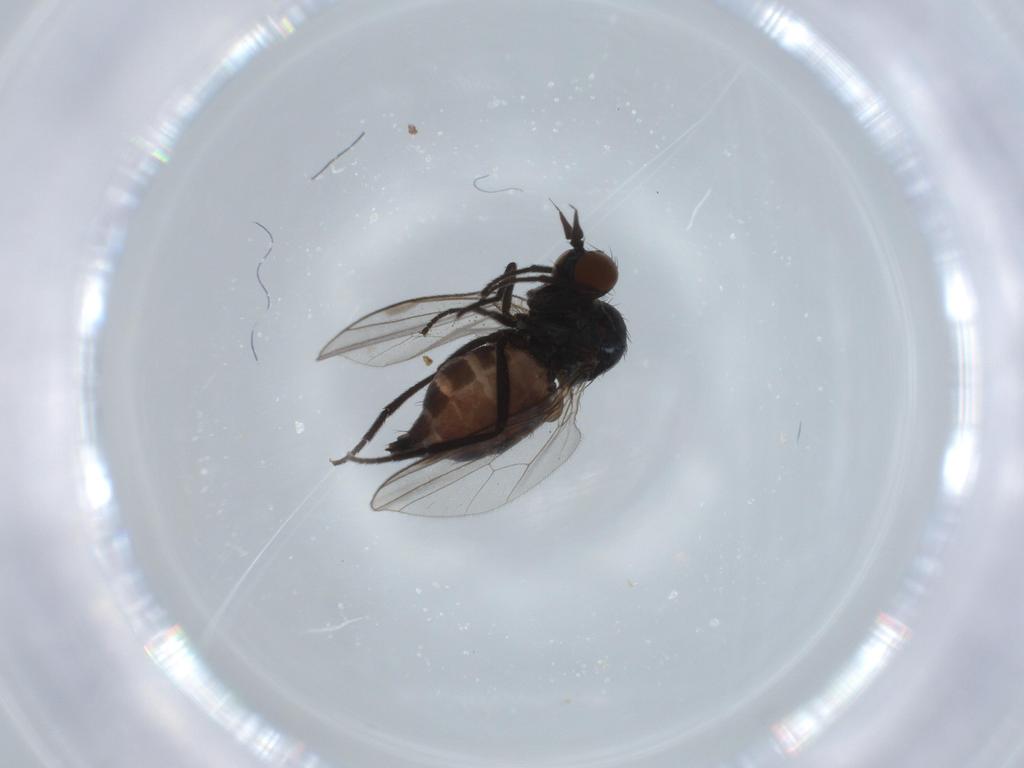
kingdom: Animalia
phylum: Arthropoda
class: Insecta
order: Diptera
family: Dolichopodidae
